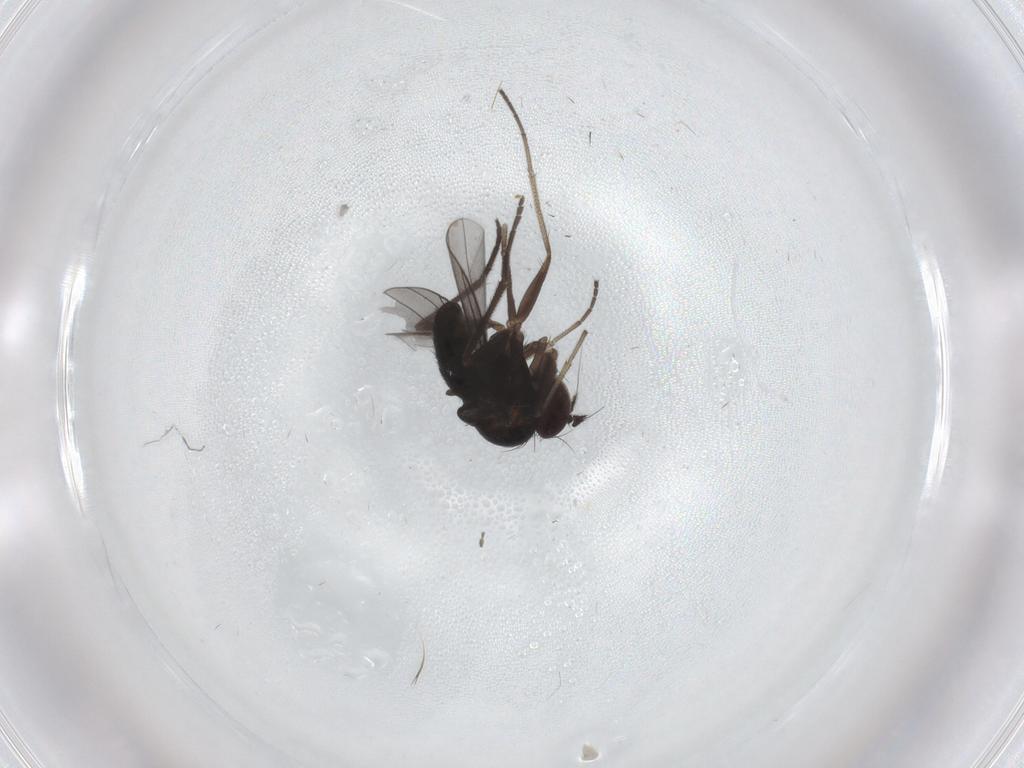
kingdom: Animalia
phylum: Arthropoda
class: Insecta
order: Diptera
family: Dolichopodidae
